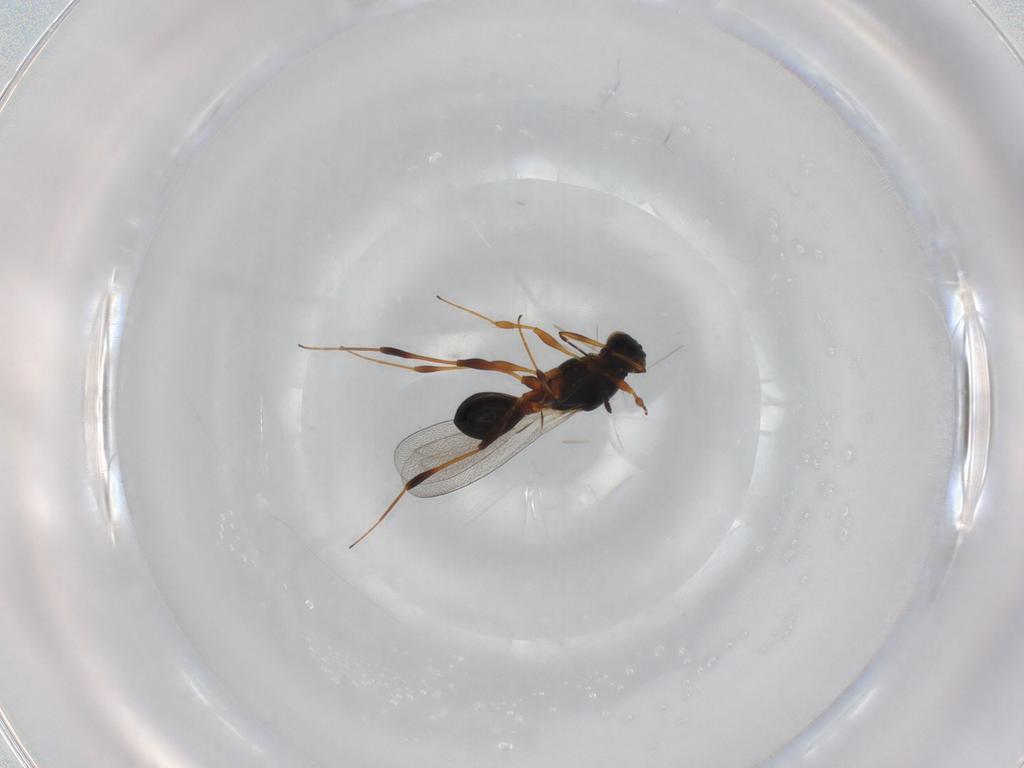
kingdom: Animalia
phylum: Arthropoda
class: Insecta
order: Hymenoptera
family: Platygastridae
